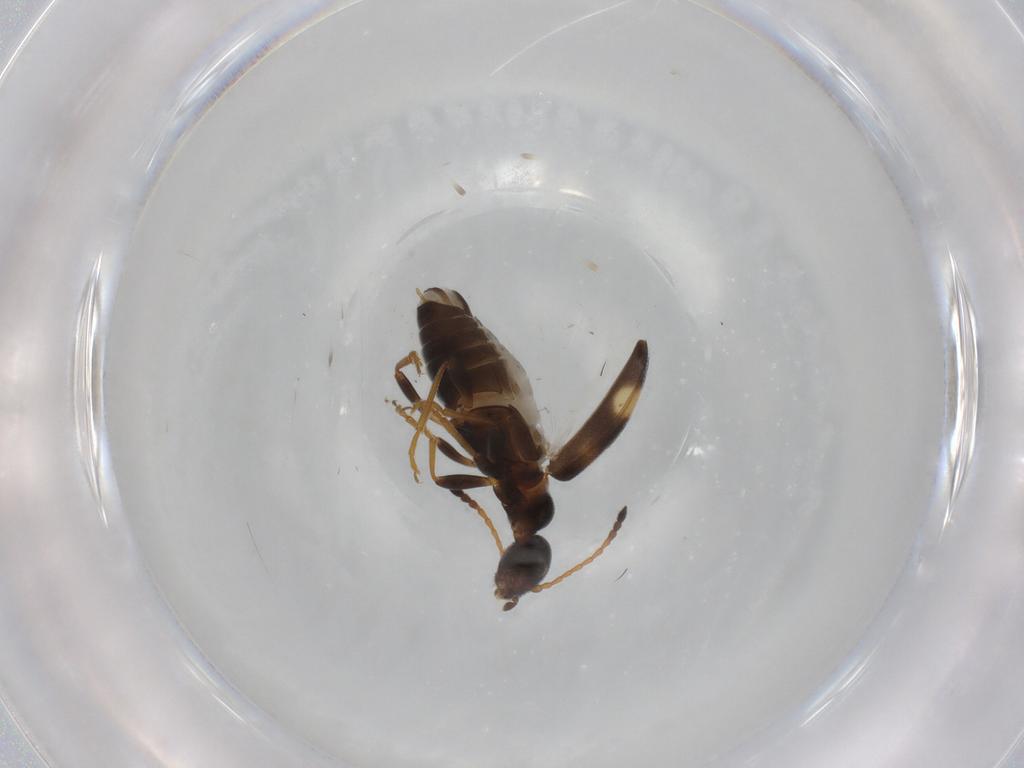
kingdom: Animalia
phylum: Arthropoda
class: Insecta
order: Coleoptera
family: Anthicidae
